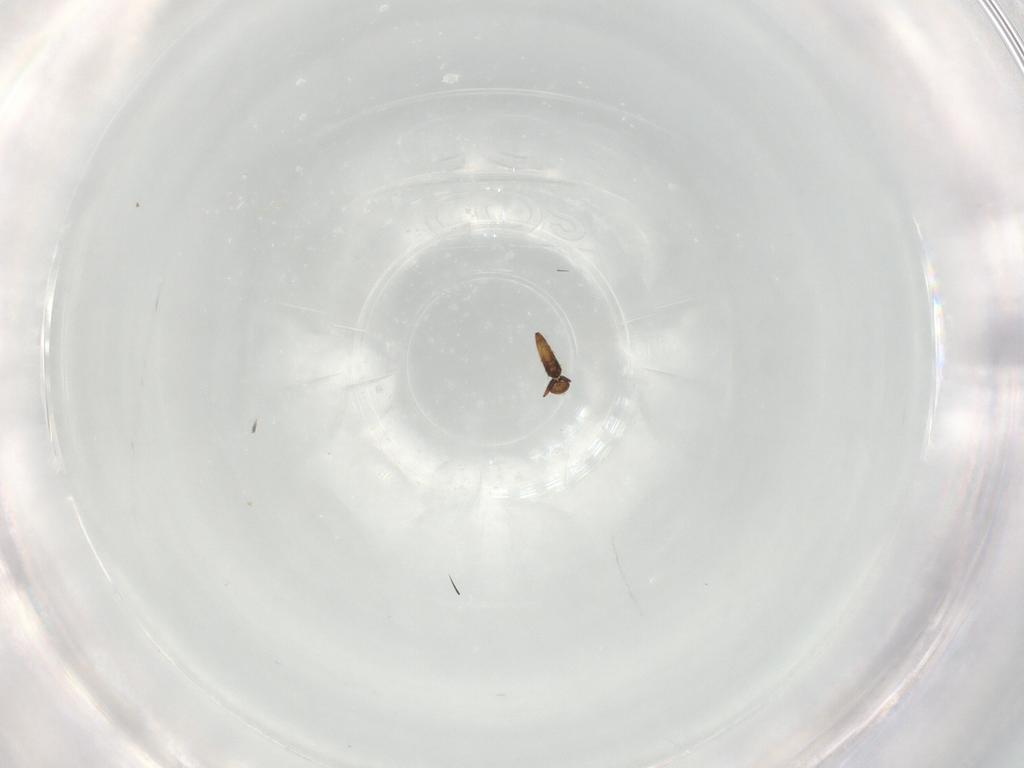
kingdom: Animalia
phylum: Arthropoda
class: Insecta
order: Blattodea
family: Ectobiidae
